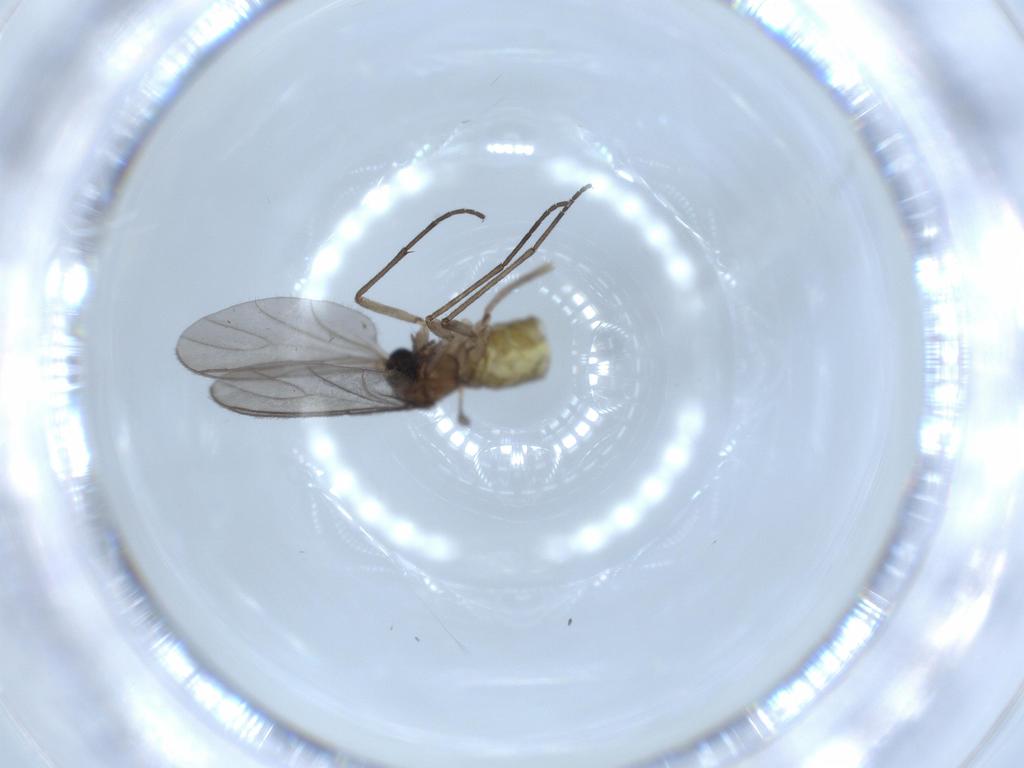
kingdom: Animalia
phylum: Arthropoda
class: Insecta
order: Diptera
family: Sciaridae
